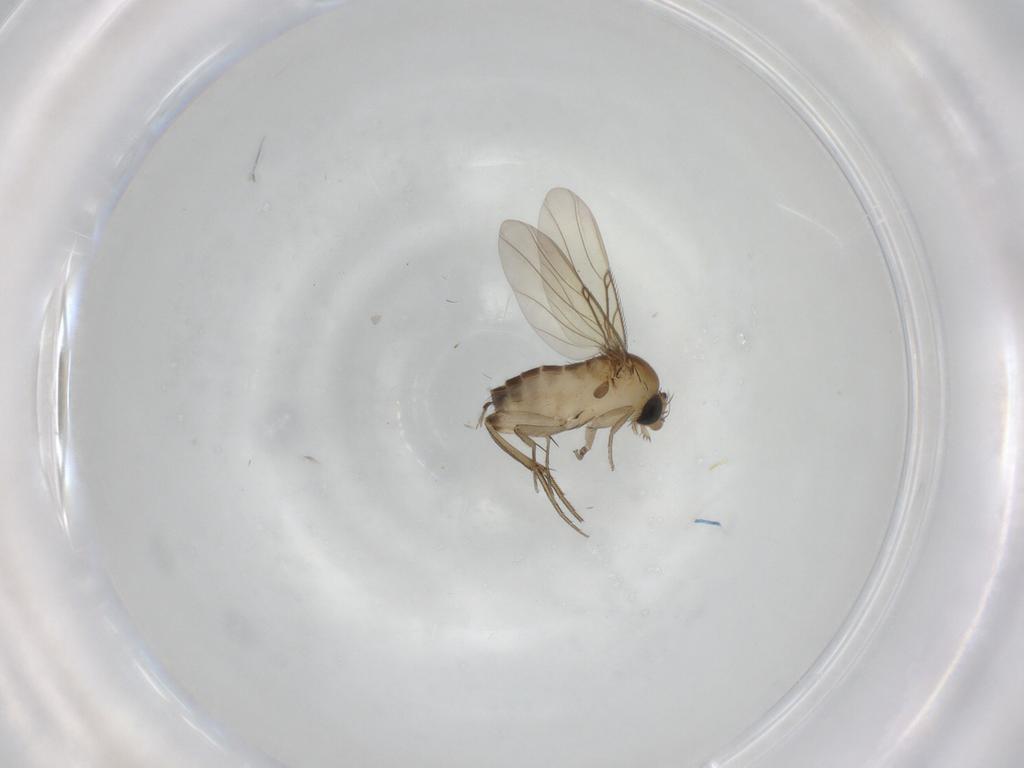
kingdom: Animalia
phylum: Arthropoda
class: Insecta
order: Diptera
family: Phoridae
